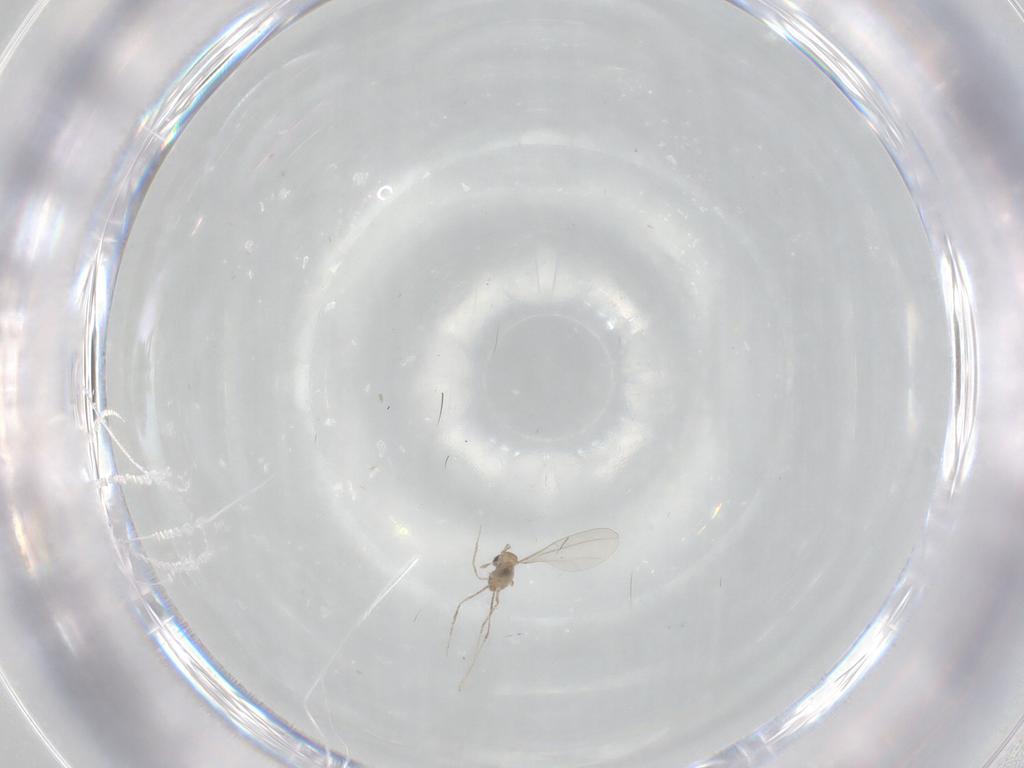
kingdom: Animalia
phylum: Arthropoda
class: Insecta
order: Diptera
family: Cecidomyiidae
